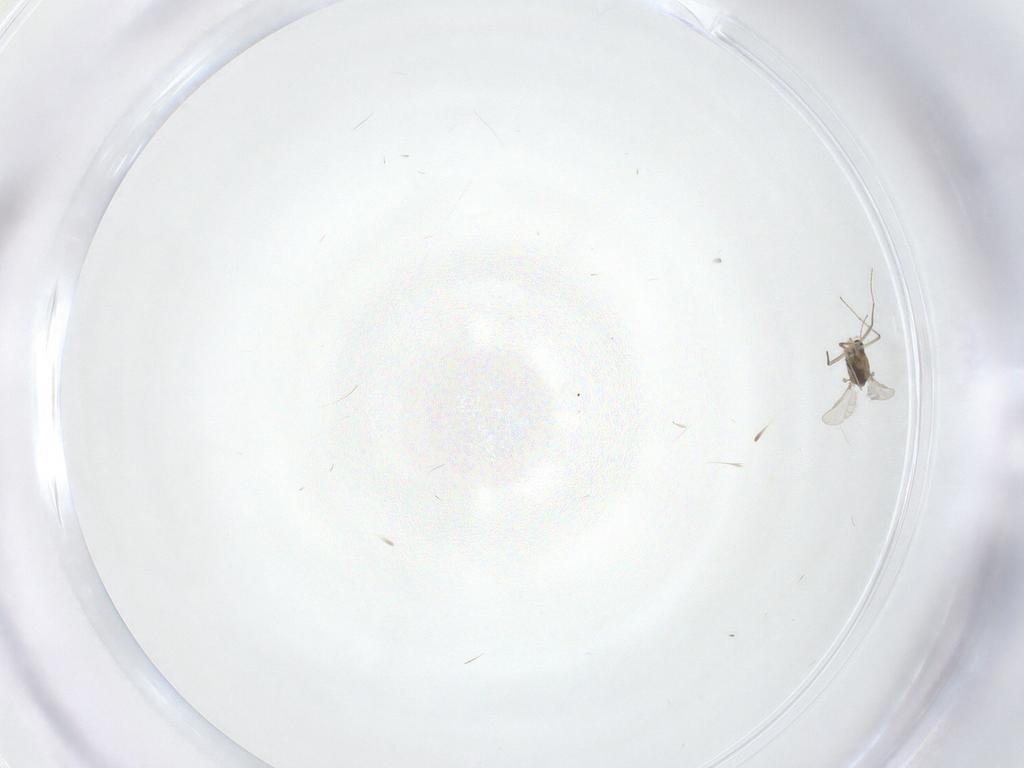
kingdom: Animalia
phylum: Arthropoda
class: Insecta
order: Diptera
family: Chironomidae
